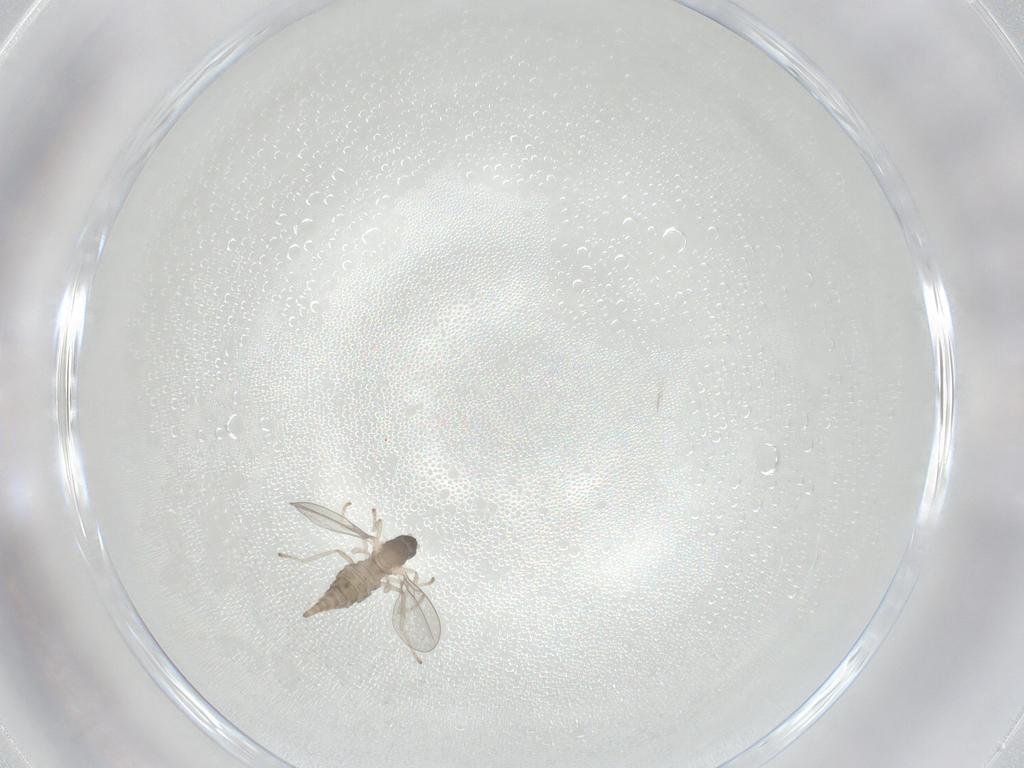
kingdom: Animalia
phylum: Arthropoda
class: Insecta
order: Diptera
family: Cecidomyiidae
